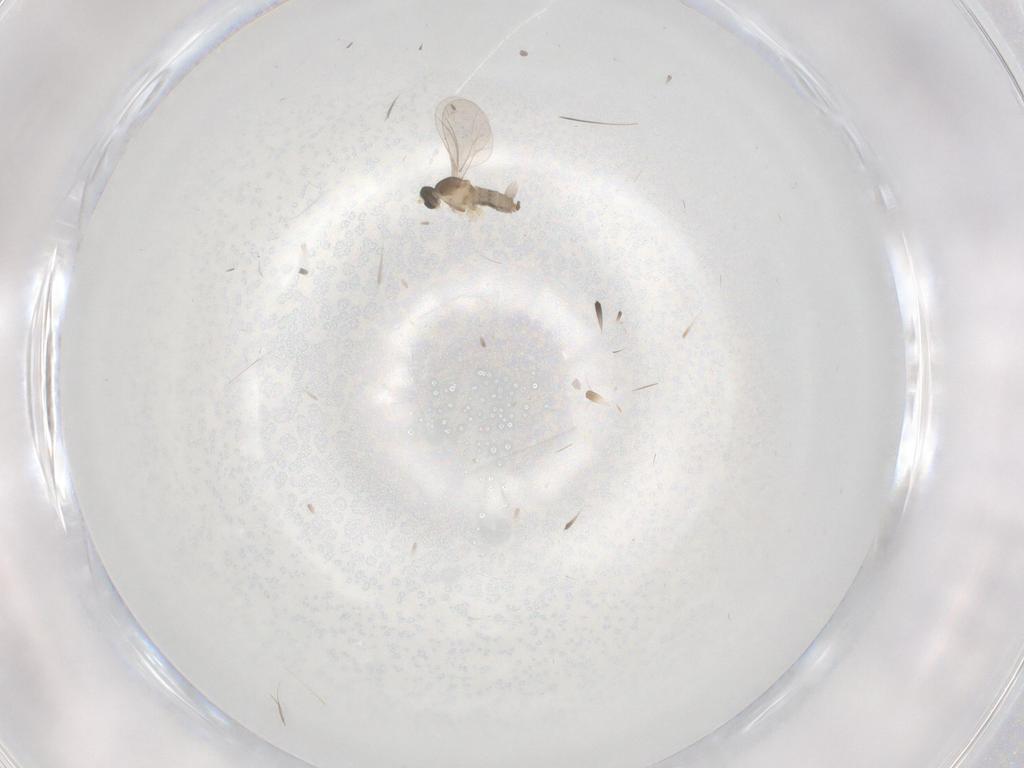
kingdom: Animalia
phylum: Arthropoda
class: Insecta
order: Diptera
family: Cecidomyiidae
